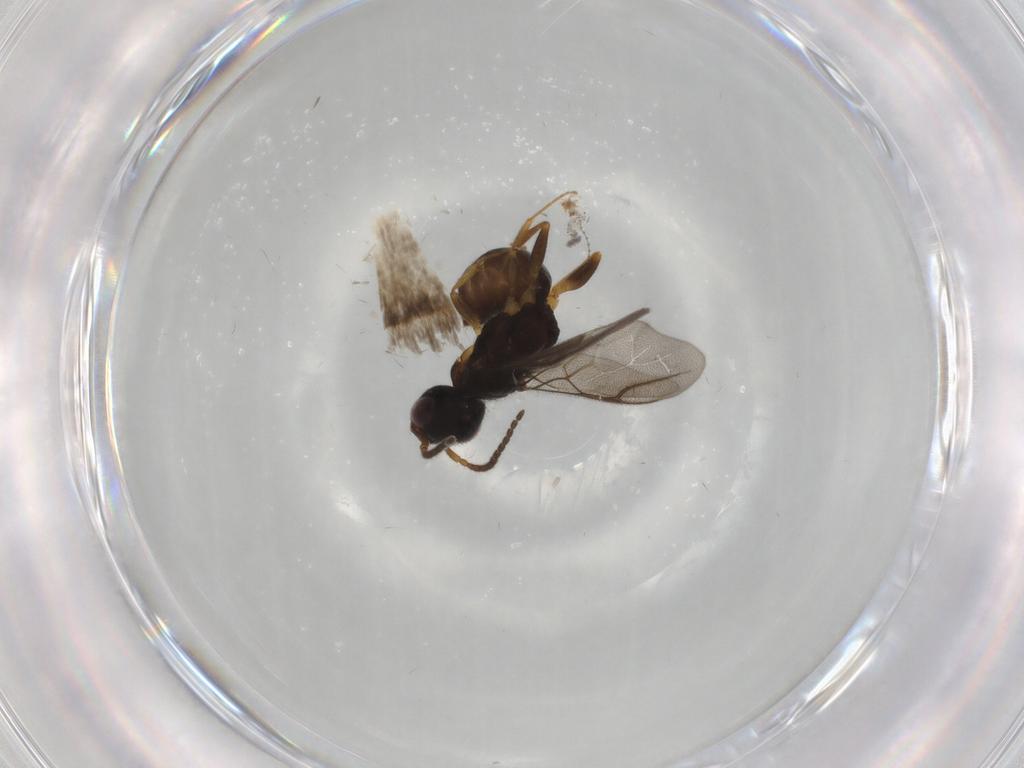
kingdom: Animalia
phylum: Arthropoda
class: Insecta
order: Hymenoptera
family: Bethylidae
